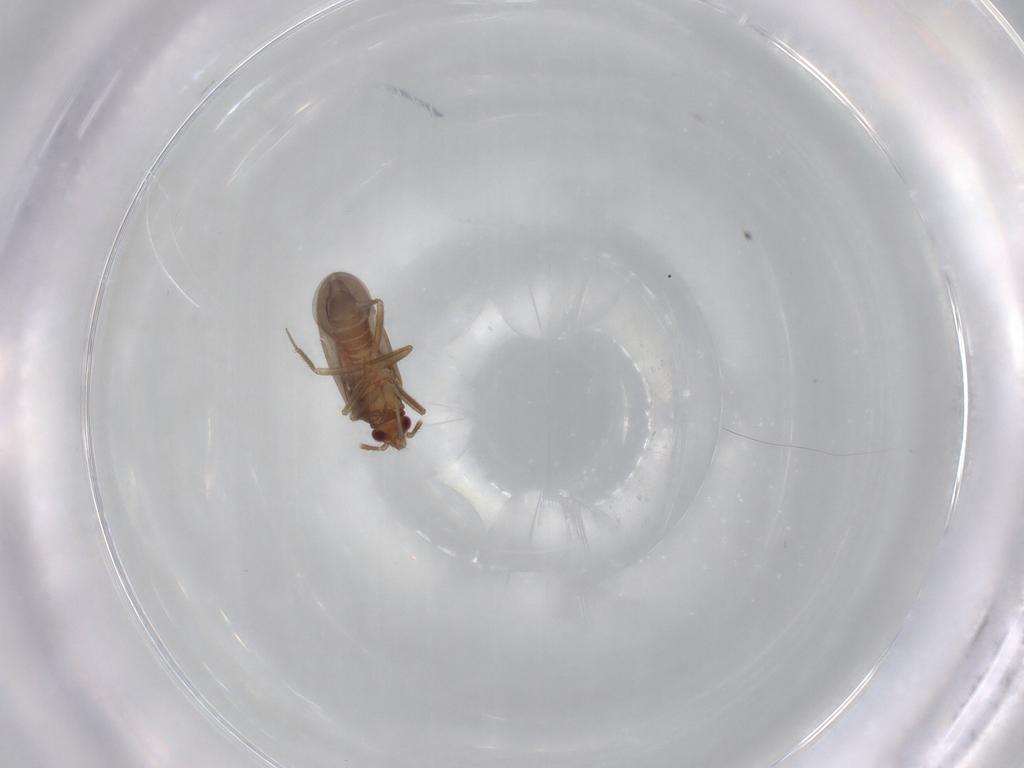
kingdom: Animalia
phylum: Arthropoda
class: Insecta
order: Hemiptera
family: Ceratocombidae
